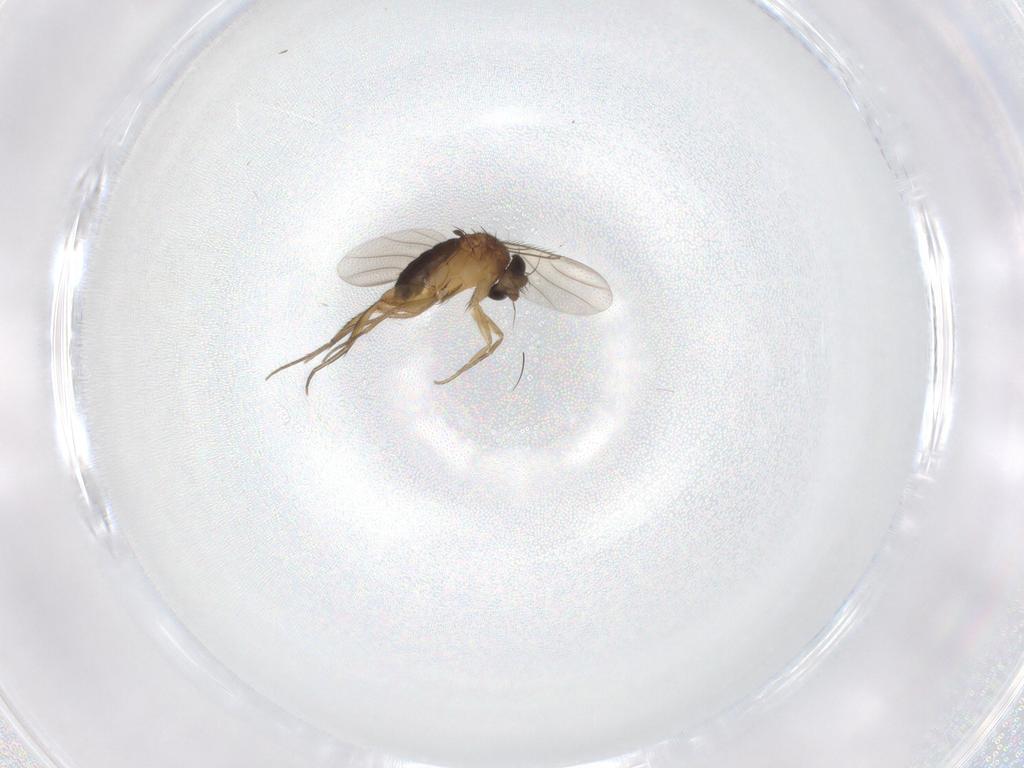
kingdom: Animalia
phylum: Arthropoda
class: Insecta
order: Diptera
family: Phoridae
